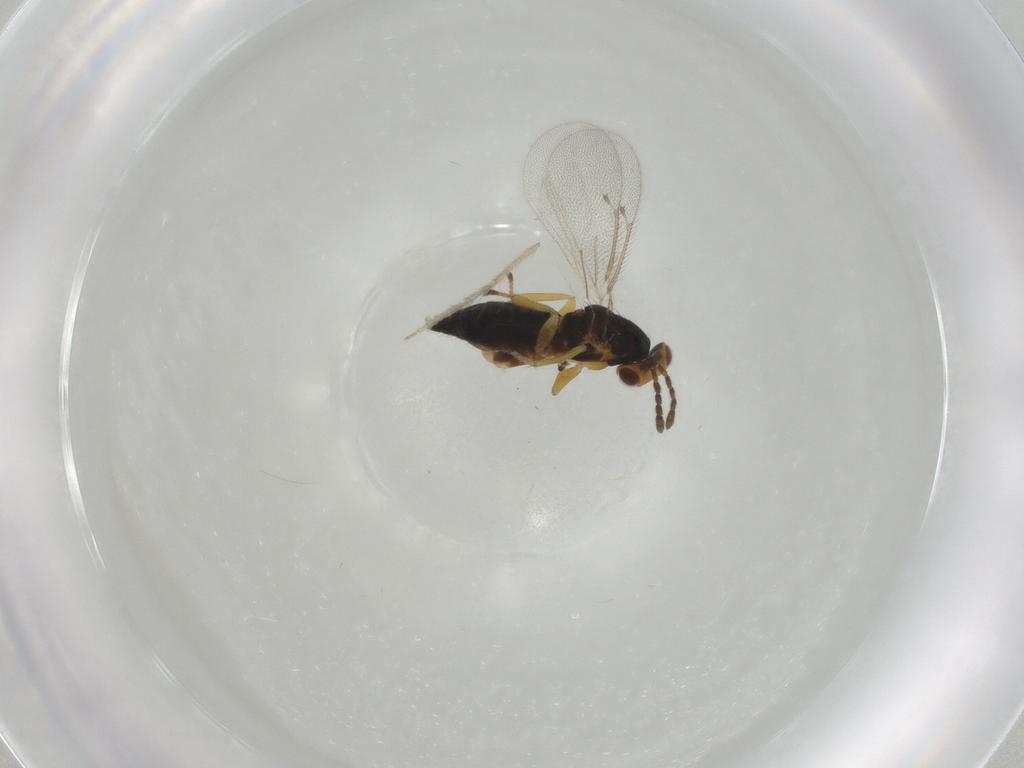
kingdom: Animalia
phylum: Arthropoda
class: Insecta
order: Hymenoptera
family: Eulophidae
